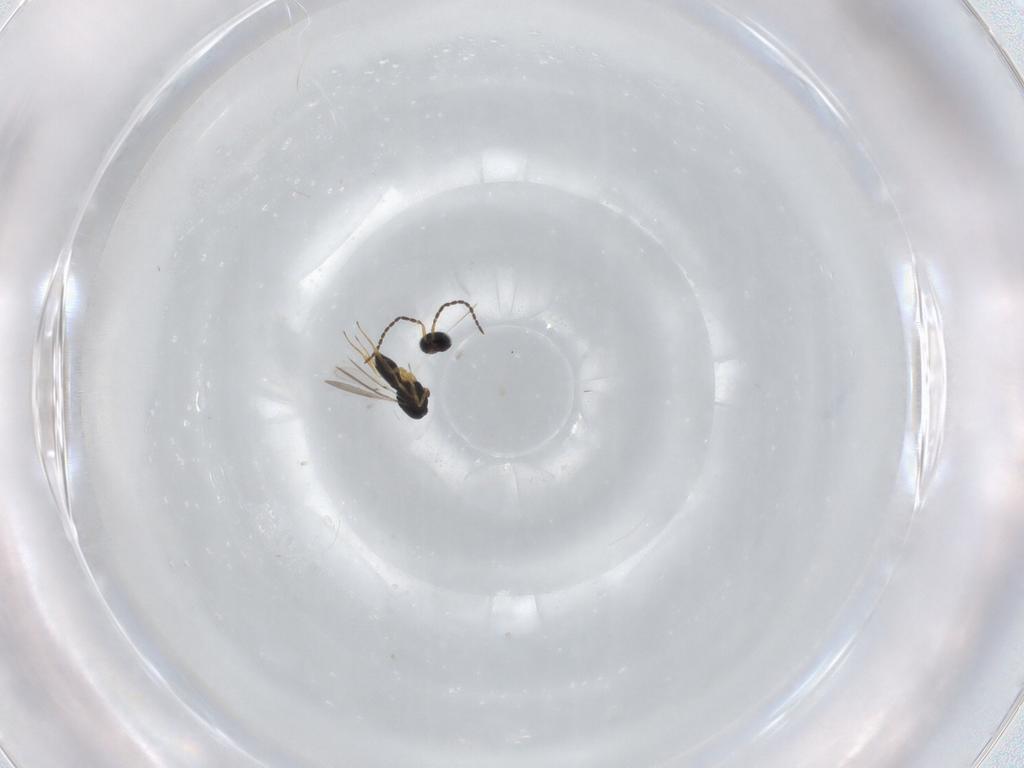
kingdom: Animalia
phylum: Arthropoda
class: Insecta
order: Hymenoptera
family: Scelionidae
